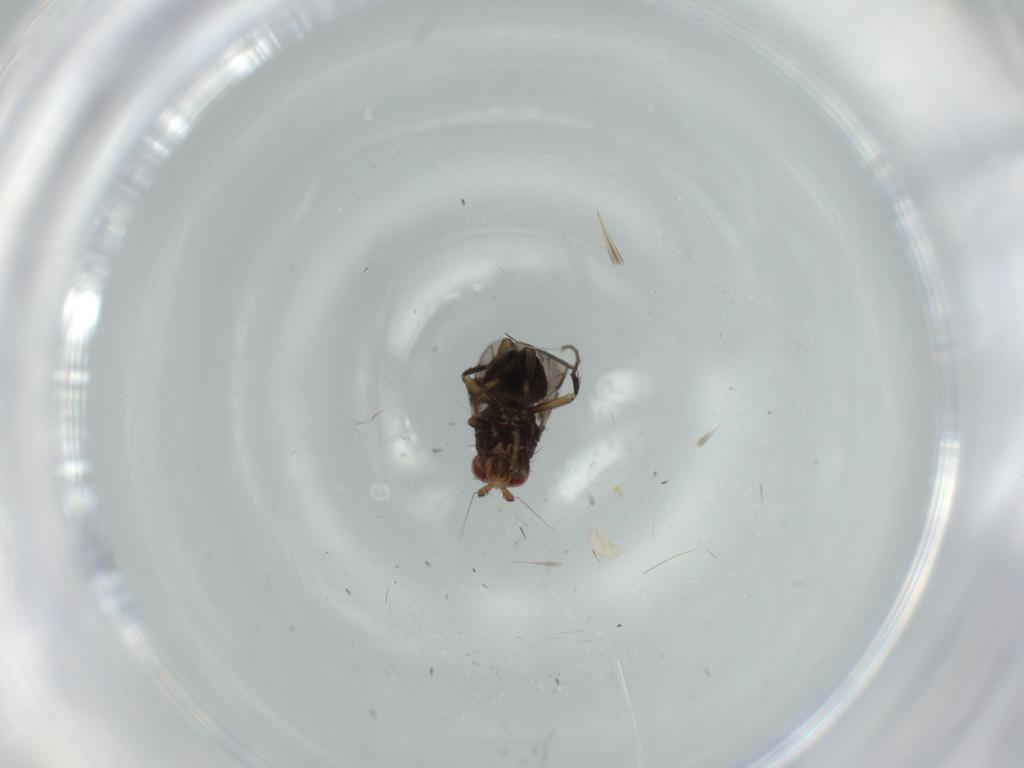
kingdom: Animalia
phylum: Arthropoda
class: Insecta
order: Diptera
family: Cecidomyiidae
